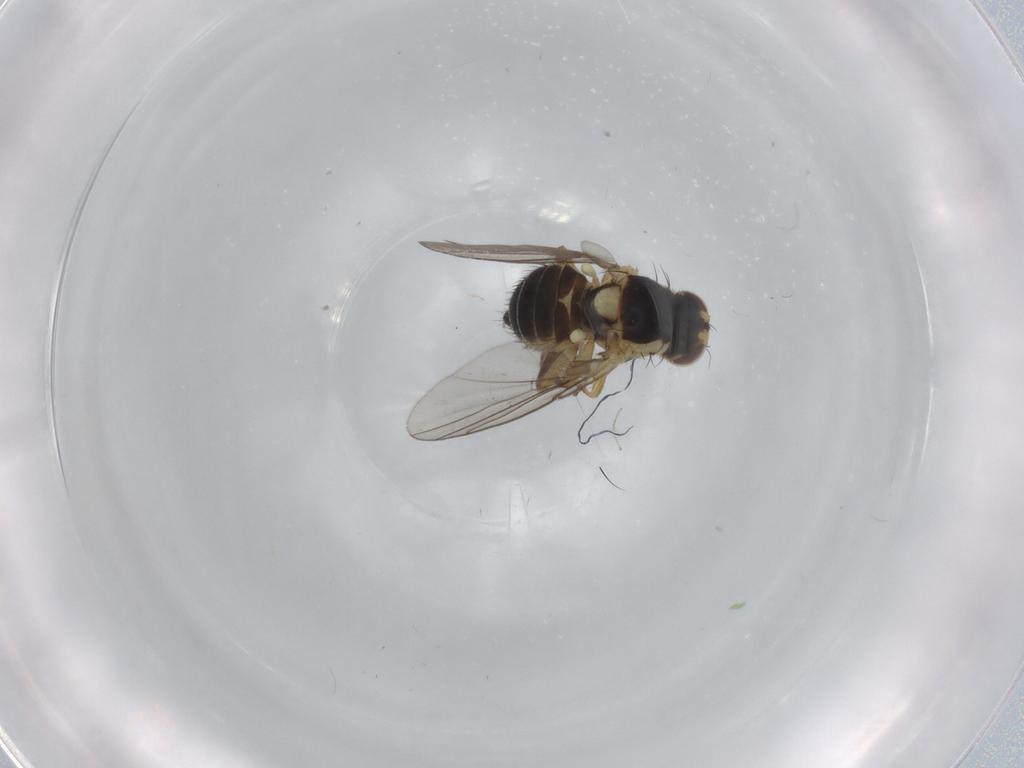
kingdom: Animalia
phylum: Arthropoda
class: Insecta
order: Diptera
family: Agromyzidae
